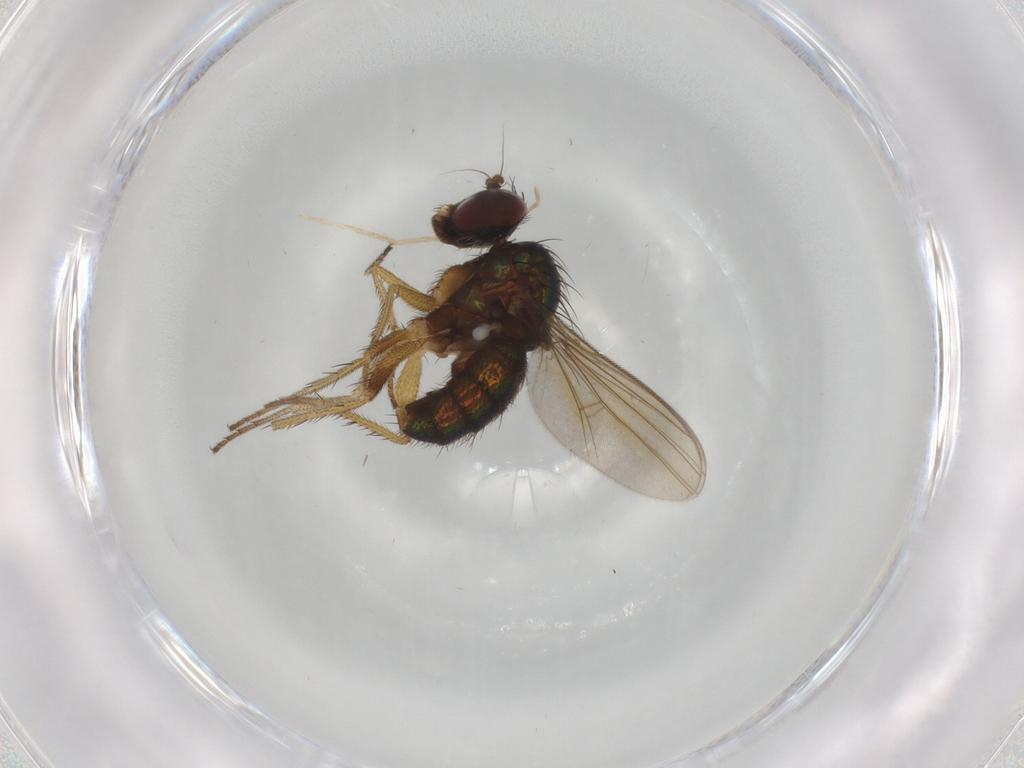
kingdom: Animalia
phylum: Arthropoda
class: Insecta
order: Diptera
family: Dolichopodidae
